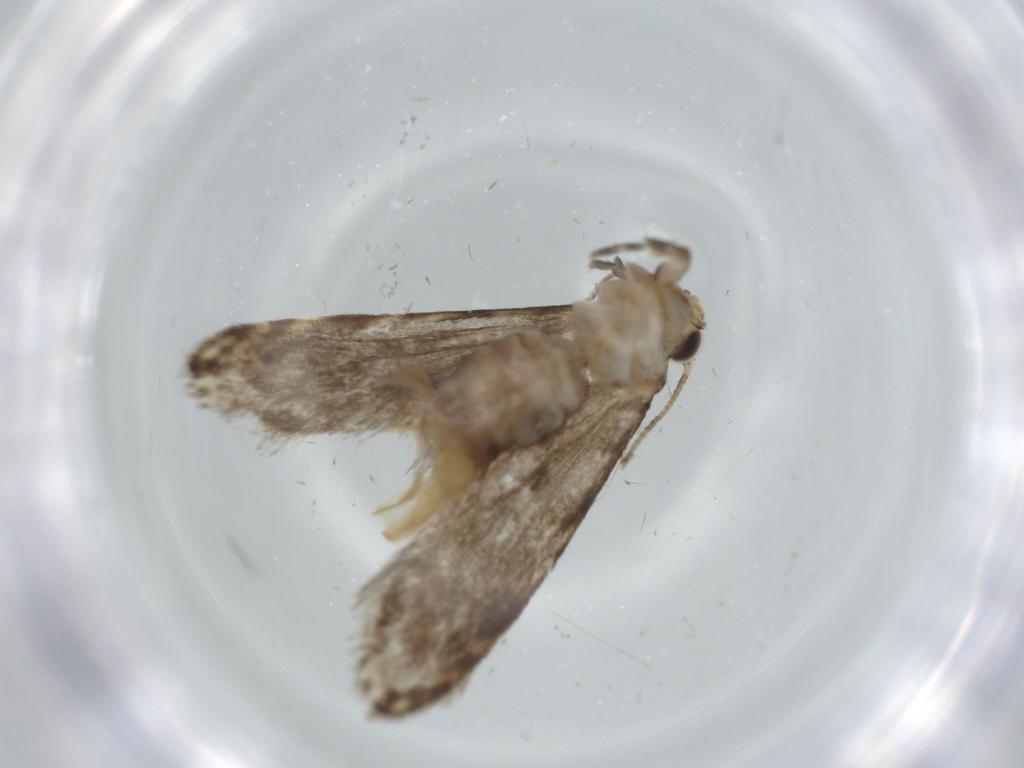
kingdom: Animalia
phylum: Arthropoda
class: Insecta
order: Lepidoptera
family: Tineidae
